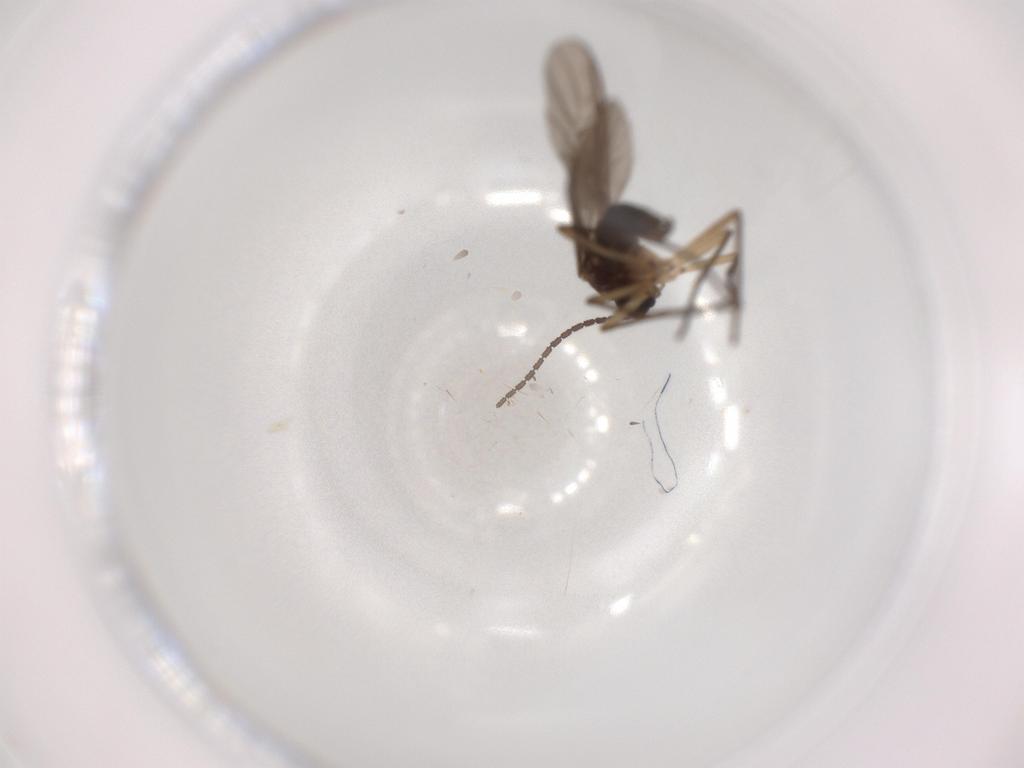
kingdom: Animalia
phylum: Arthropoda
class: Insecta
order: Diptera
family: Sciaridae
